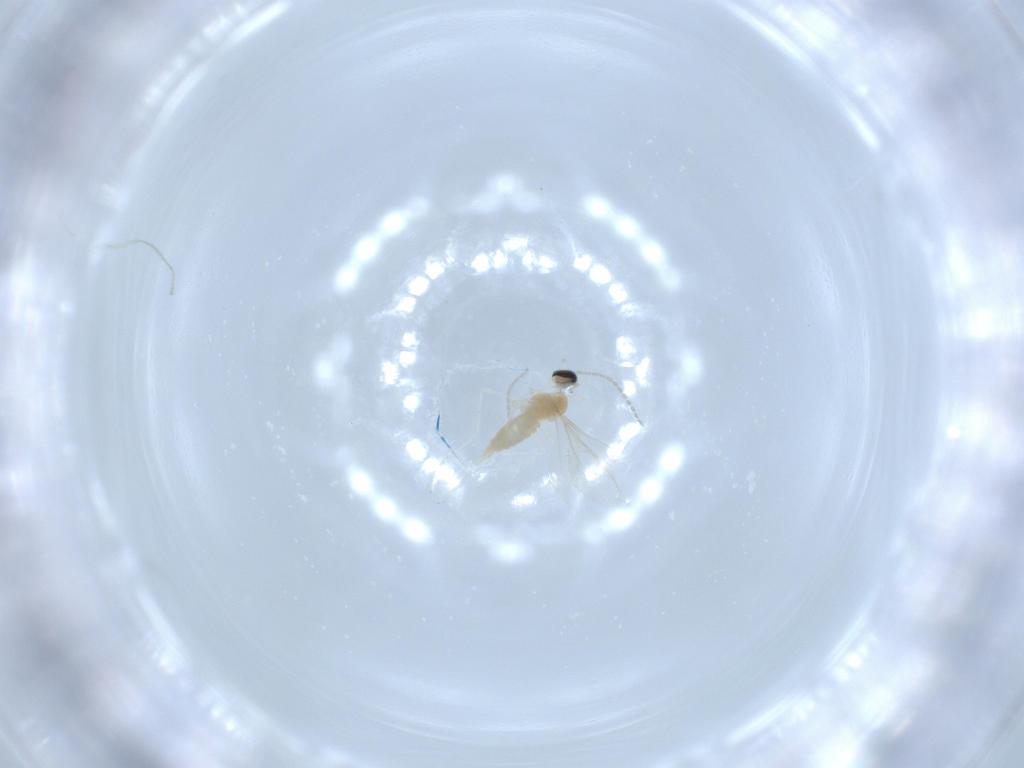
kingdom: Animalia
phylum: Arthropoda
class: Insecta
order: Diptera
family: Cecidomyiidae
